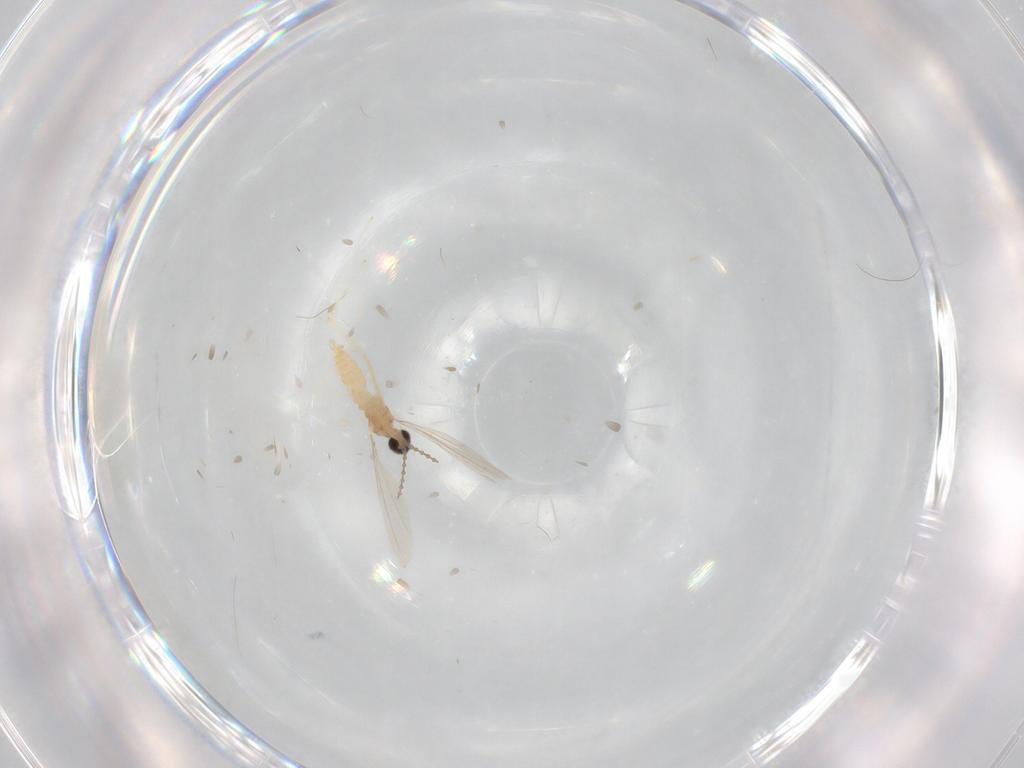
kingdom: Animalia
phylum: Arthropoda
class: Insecta
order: Diptera
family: Cecidomyiidae
